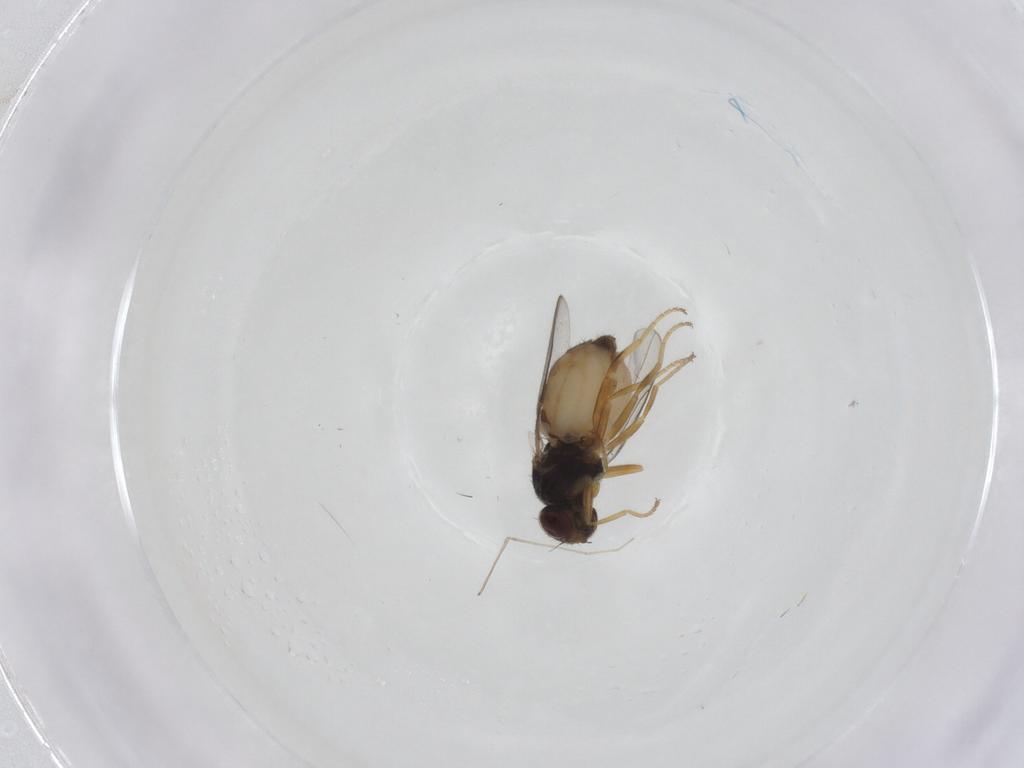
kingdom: Animalia
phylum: Arthropoda
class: Insecta
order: Diptera
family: Chloropidae
